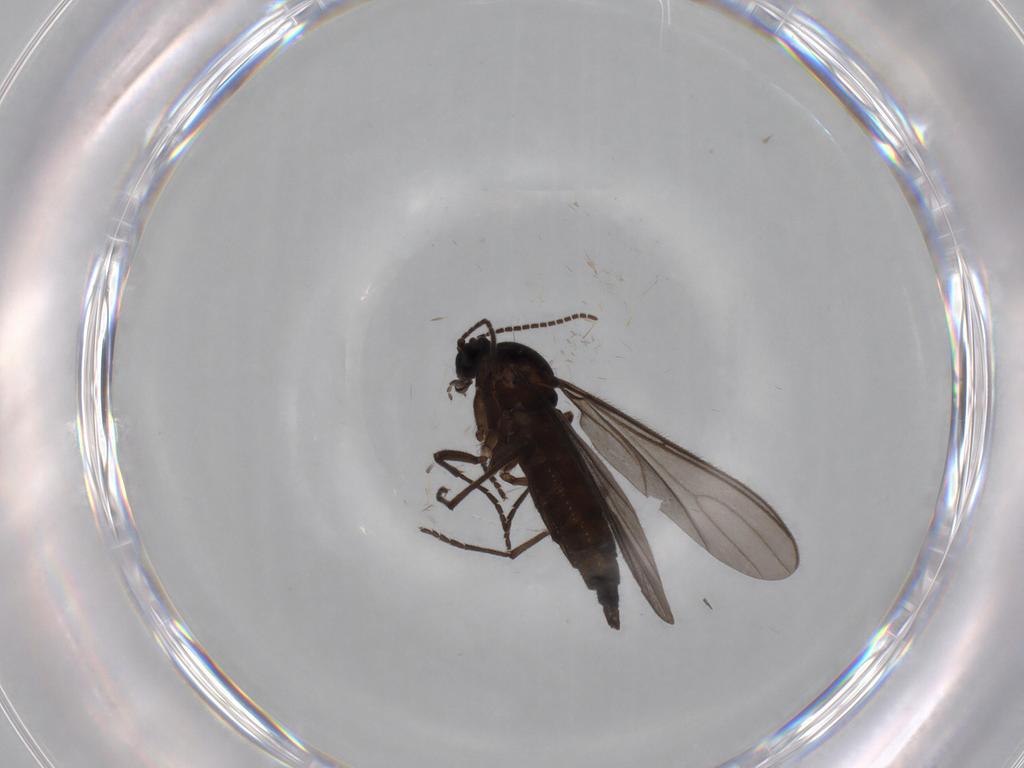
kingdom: Animalia
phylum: Arthropoda
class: Insecta
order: Diptera
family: Sciaridae
